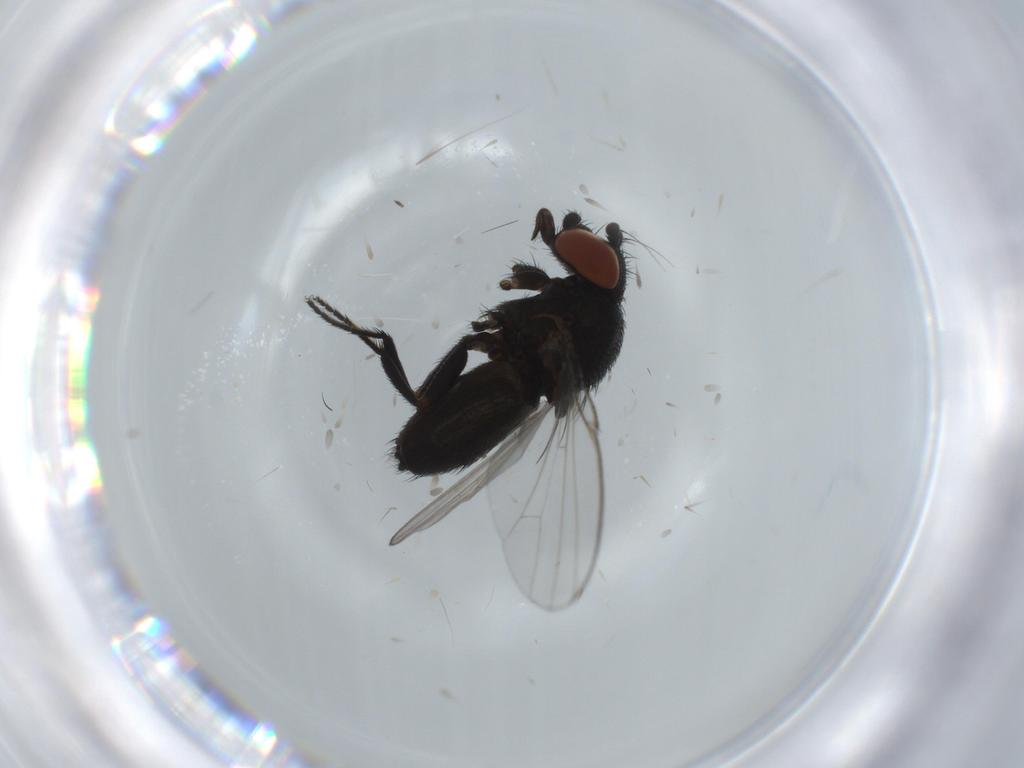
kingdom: Animalia
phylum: Arthropoda
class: Insecta
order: Diptera
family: Milichiidae
